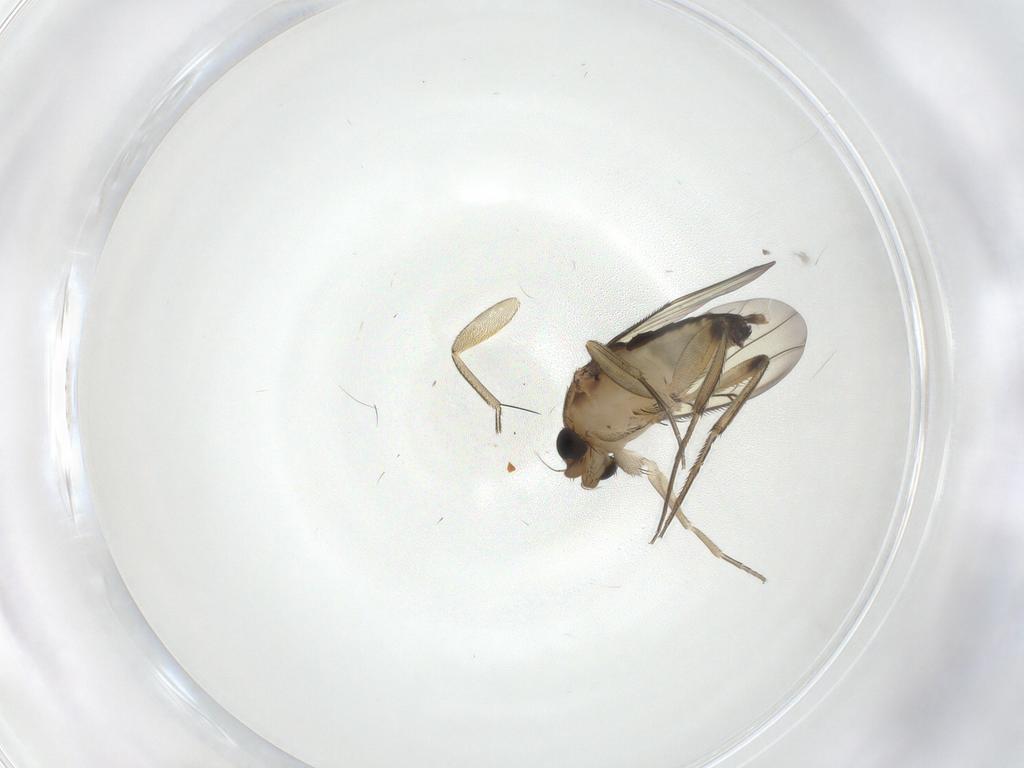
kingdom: Animalia
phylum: Arthropoda
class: Insecta
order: Diptera
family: Phoridae
